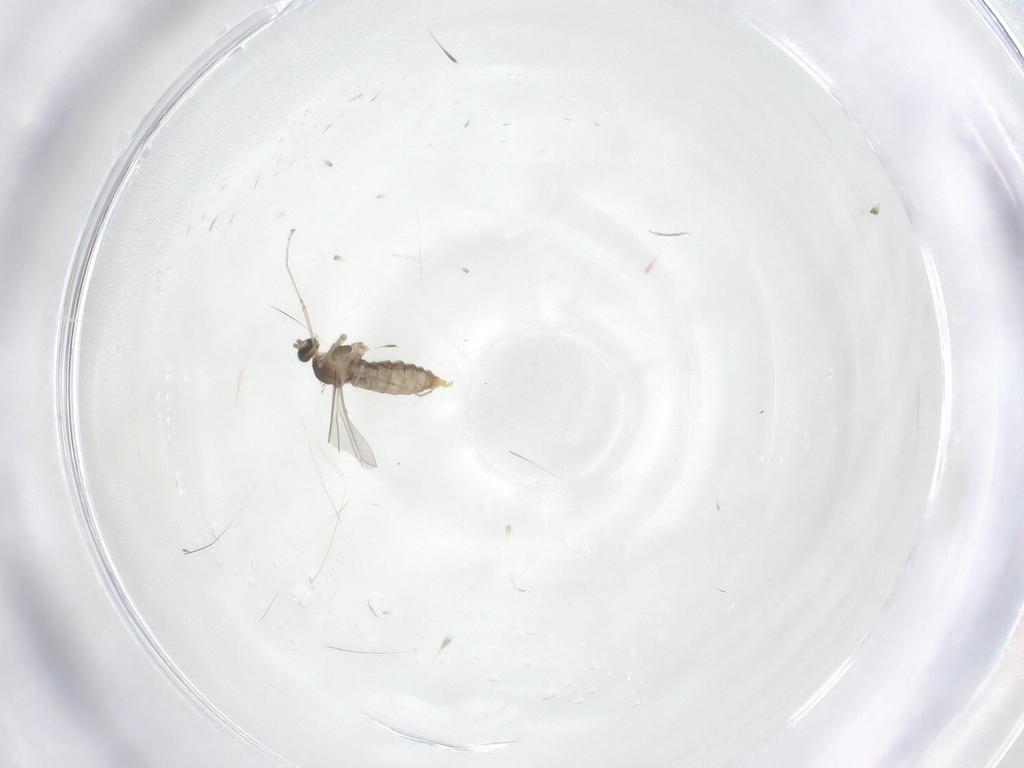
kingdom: Animalia
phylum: Arthropoda
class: Insecta
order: Diptera
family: Cecidomyiidae
